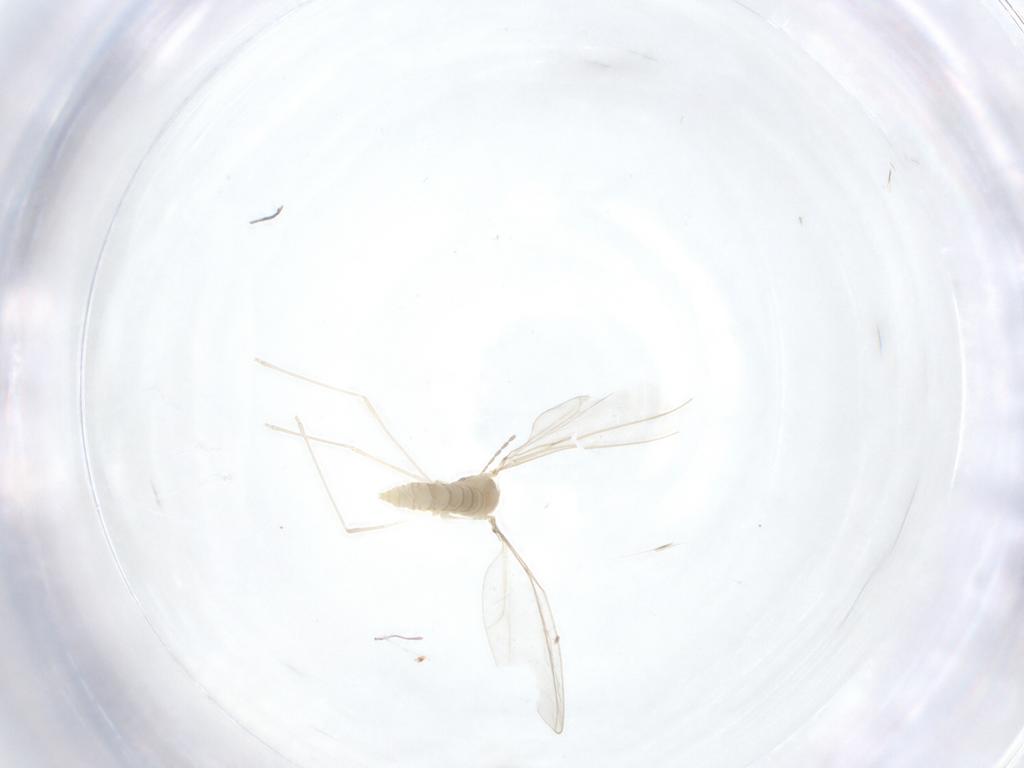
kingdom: Animalia
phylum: Arthropoda
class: Insecta
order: Diptera
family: Cecidomyiidae
